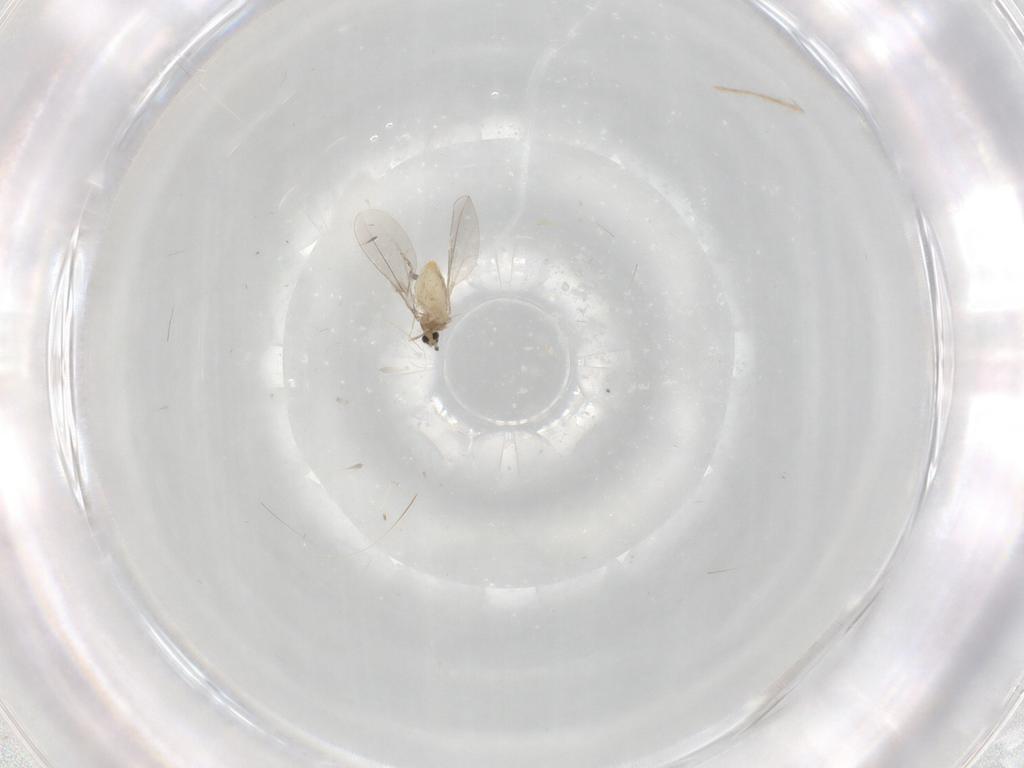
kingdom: Animalia
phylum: Arthropoda
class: Insecta
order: Diptera
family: Cecidomyiidae
